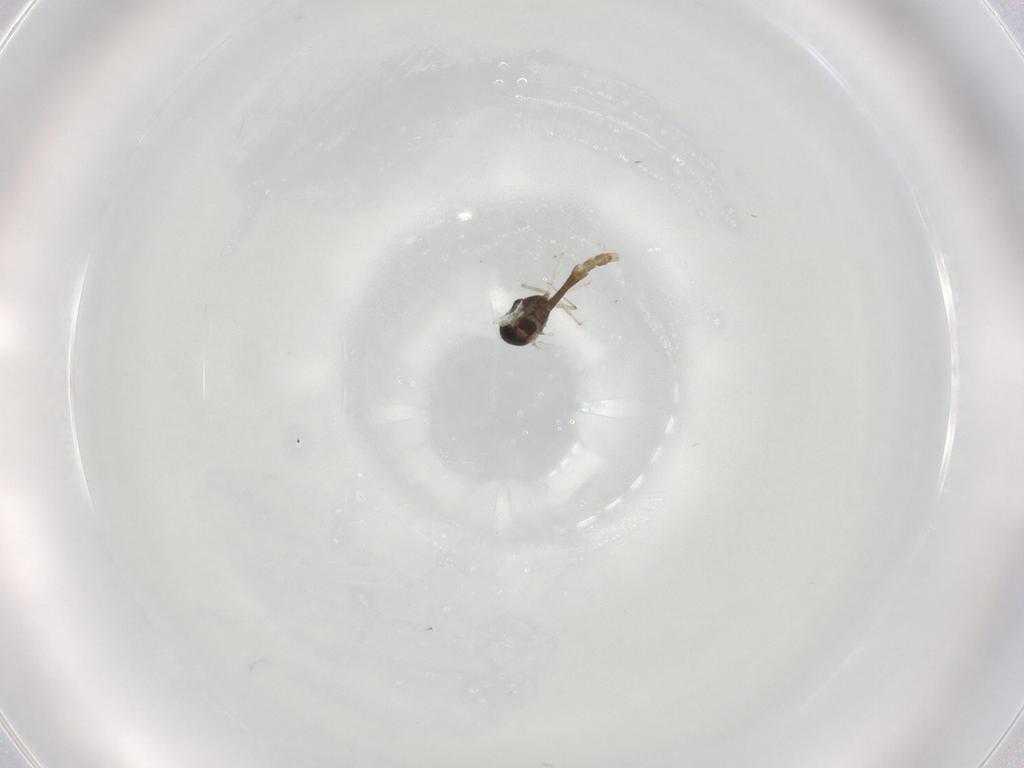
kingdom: Animalia
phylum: Arthropoda
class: Insecta
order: Diptera
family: Chironomidae
